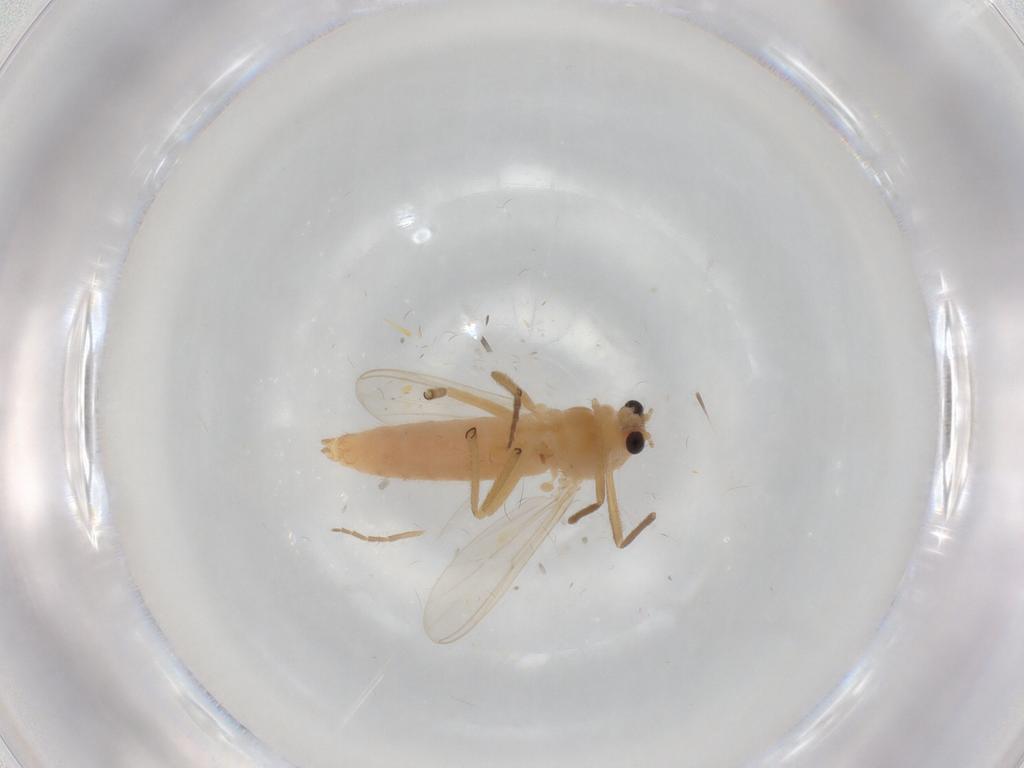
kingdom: Animalia
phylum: Arthropoda
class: Insecta
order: Diptera
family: Chironomidae
